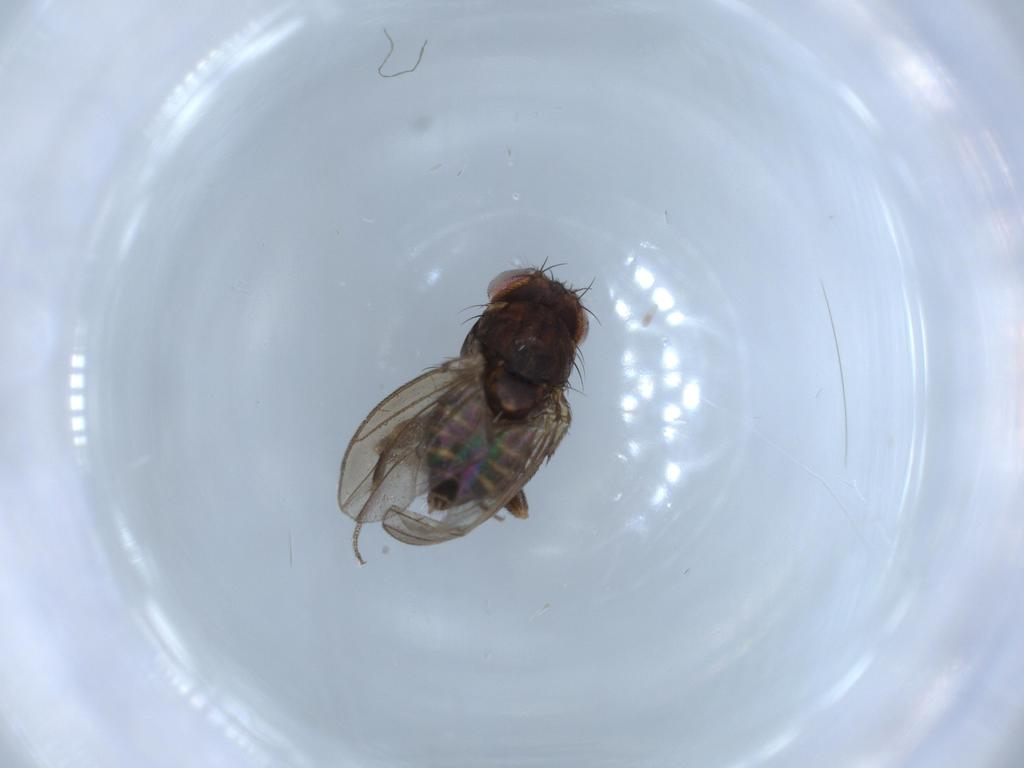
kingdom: Animalia
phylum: Arthropoda
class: Insecta
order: Diptera
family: Drosophilidae
